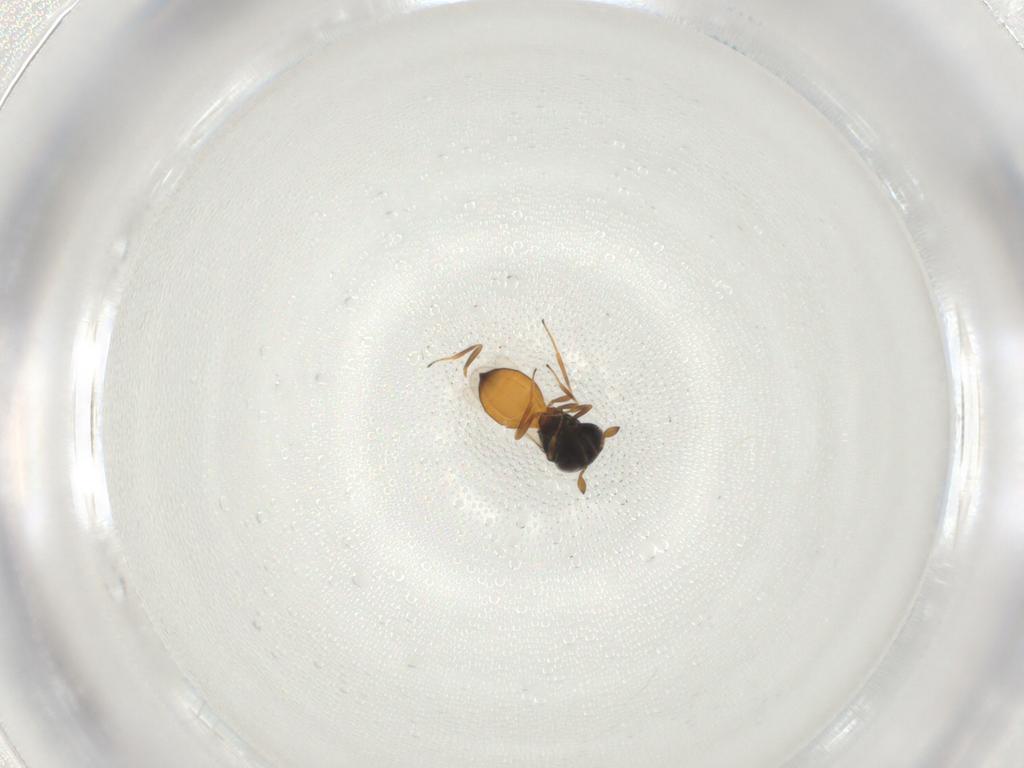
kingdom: Animalia
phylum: Arthropoda
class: Insecta
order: Hymenoptera
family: Scelionidae
